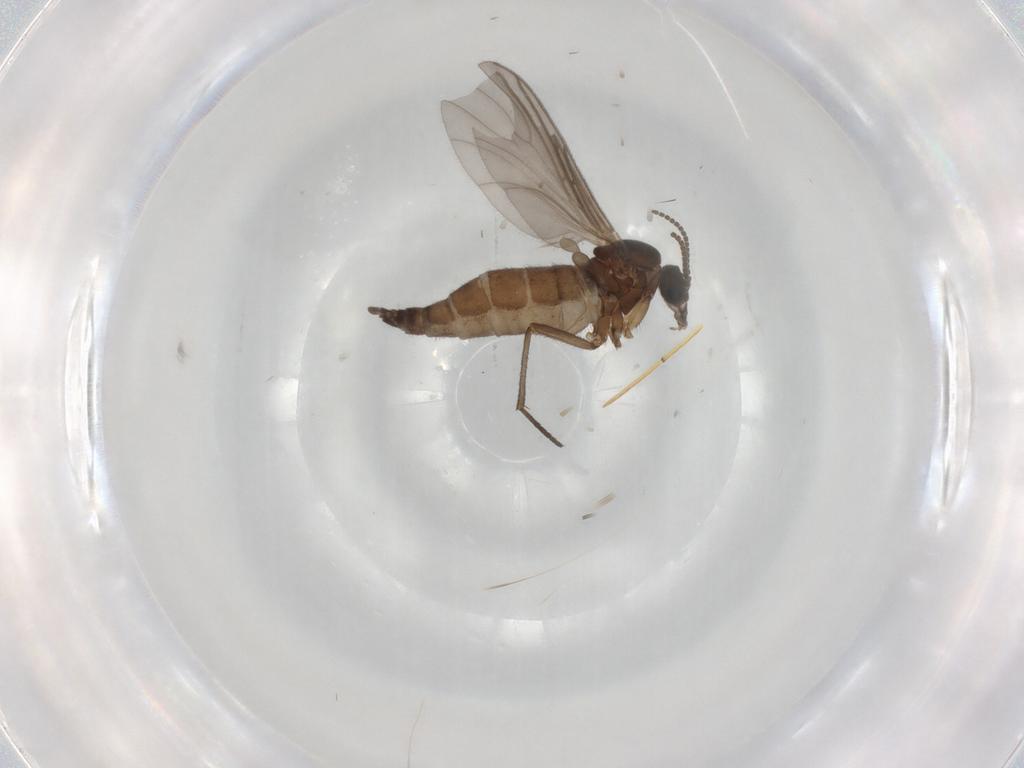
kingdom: Animalia
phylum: Arthropoda
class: Insecta
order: Diptera
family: Sciaridae
